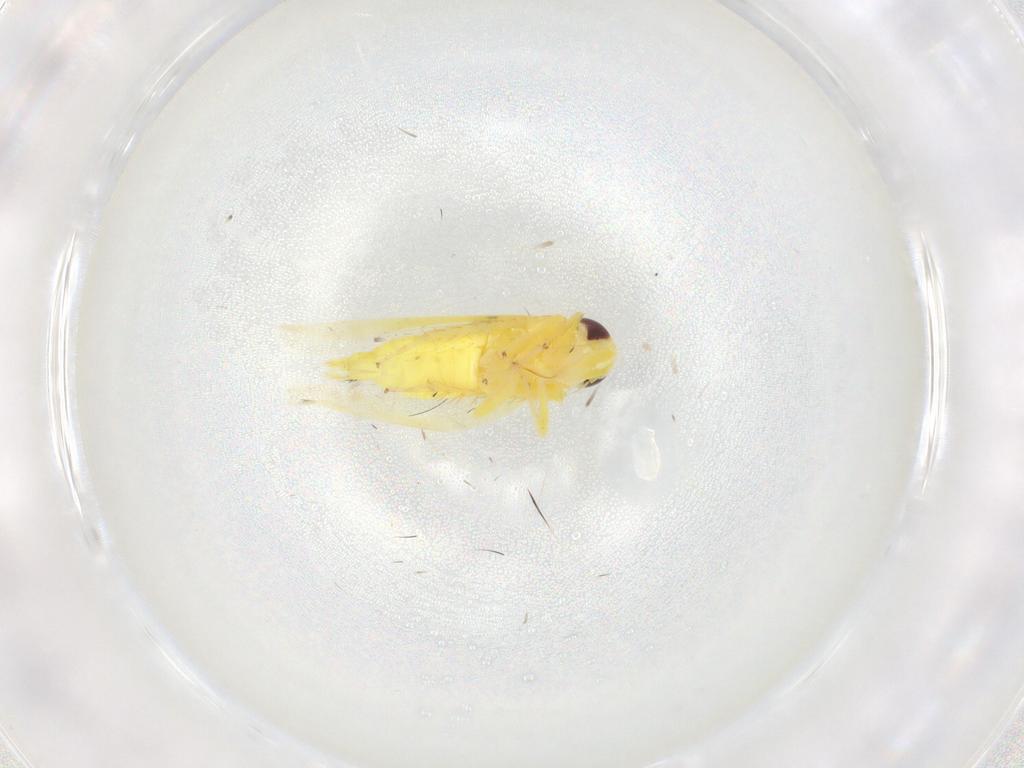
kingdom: Animalia
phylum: Arthropoda
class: Insecta
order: Hemiptera
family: Cicadellidae
